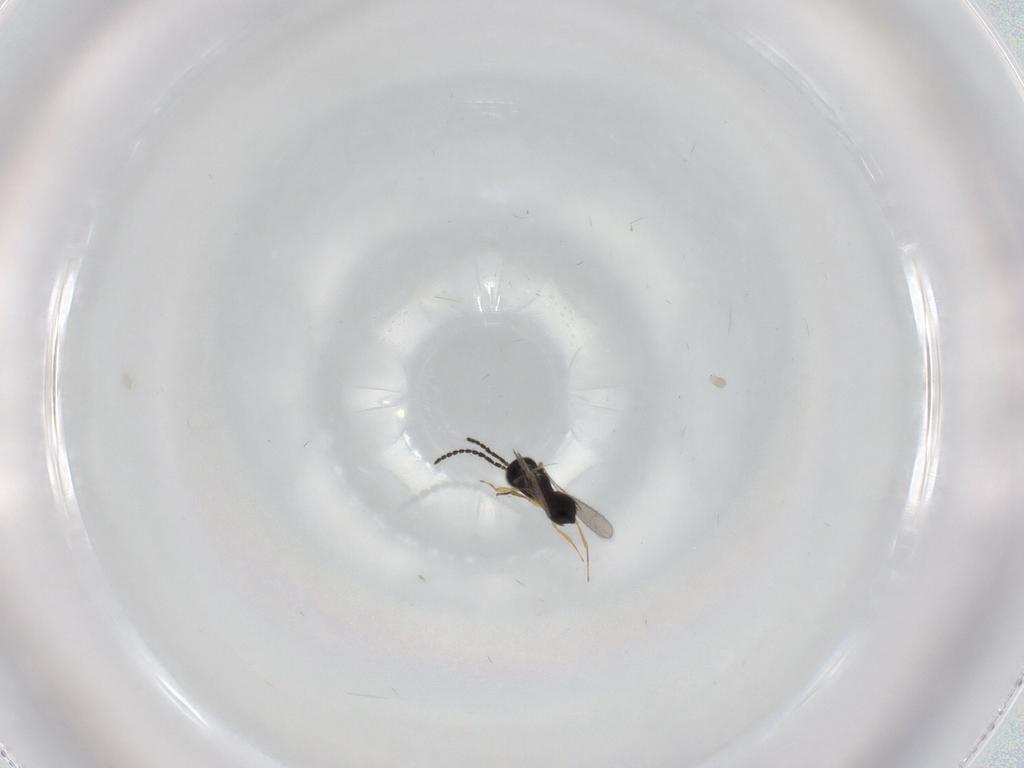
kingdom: Animalia
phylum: Arthropoda
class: Insecta
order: Hymenoptera
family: Scelionidae
